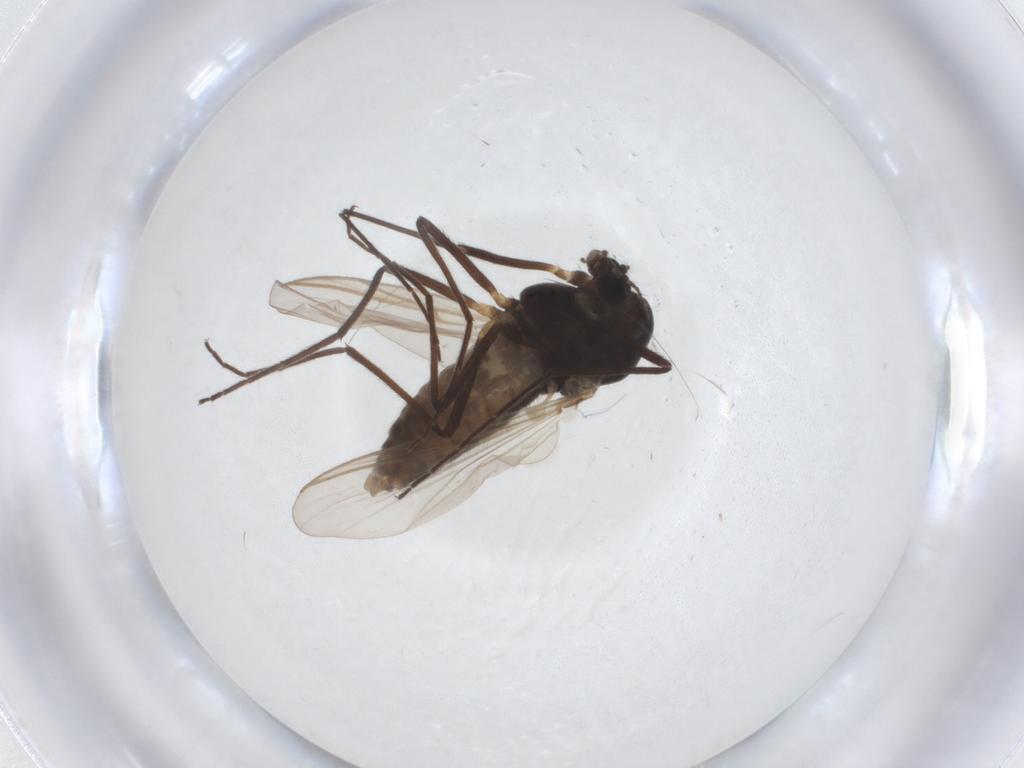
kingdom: Animalia
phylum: Arthropoda
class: Insecta
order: Diptera
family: Chironomidae
